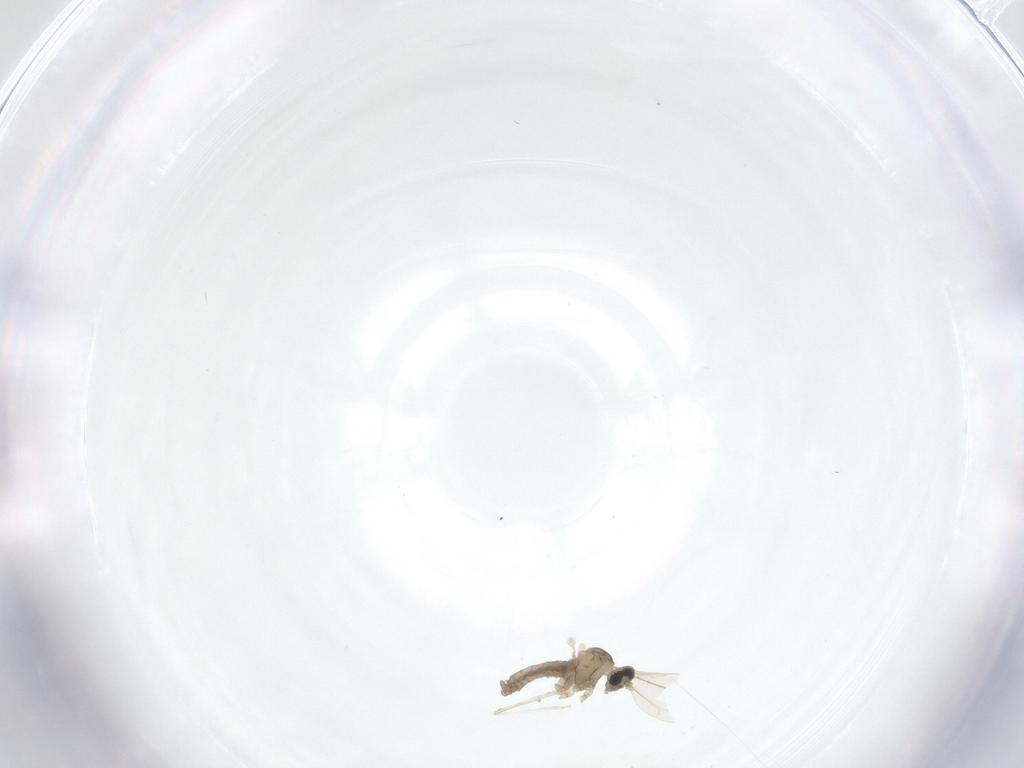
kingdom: Animalia
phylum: Arthropoda
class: Insecta
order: Diptera
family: Cecidomyiidae
